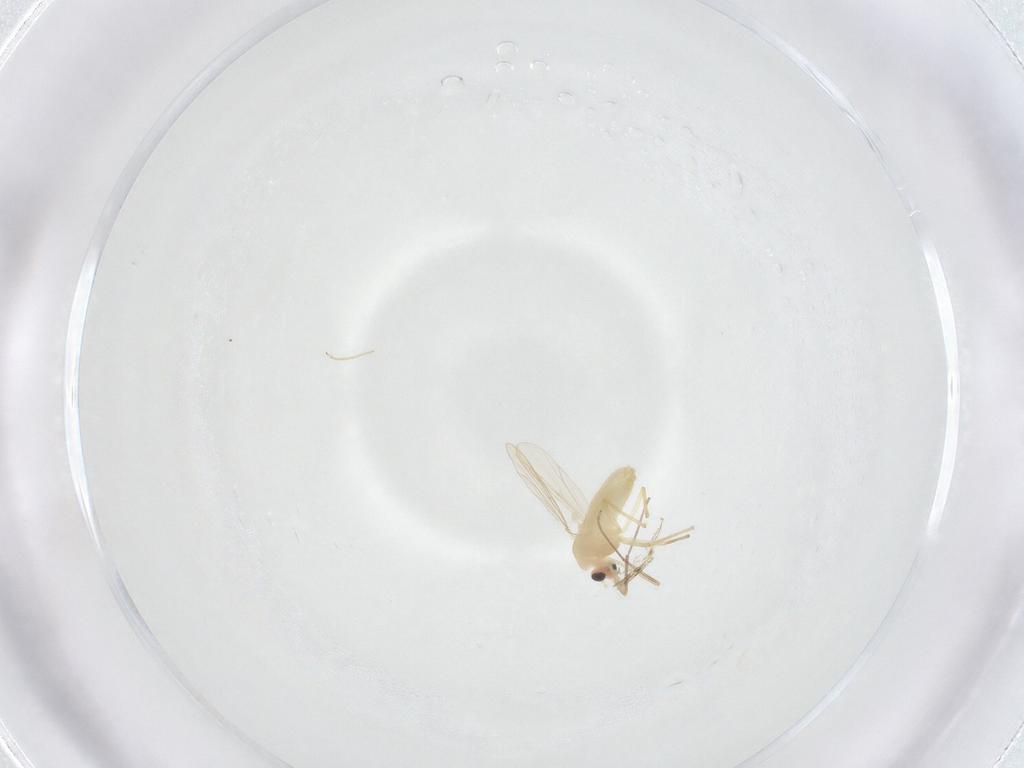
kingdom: Animalia
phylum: Arthropoda
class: Insecta
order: Diptera
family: Chironomidae
